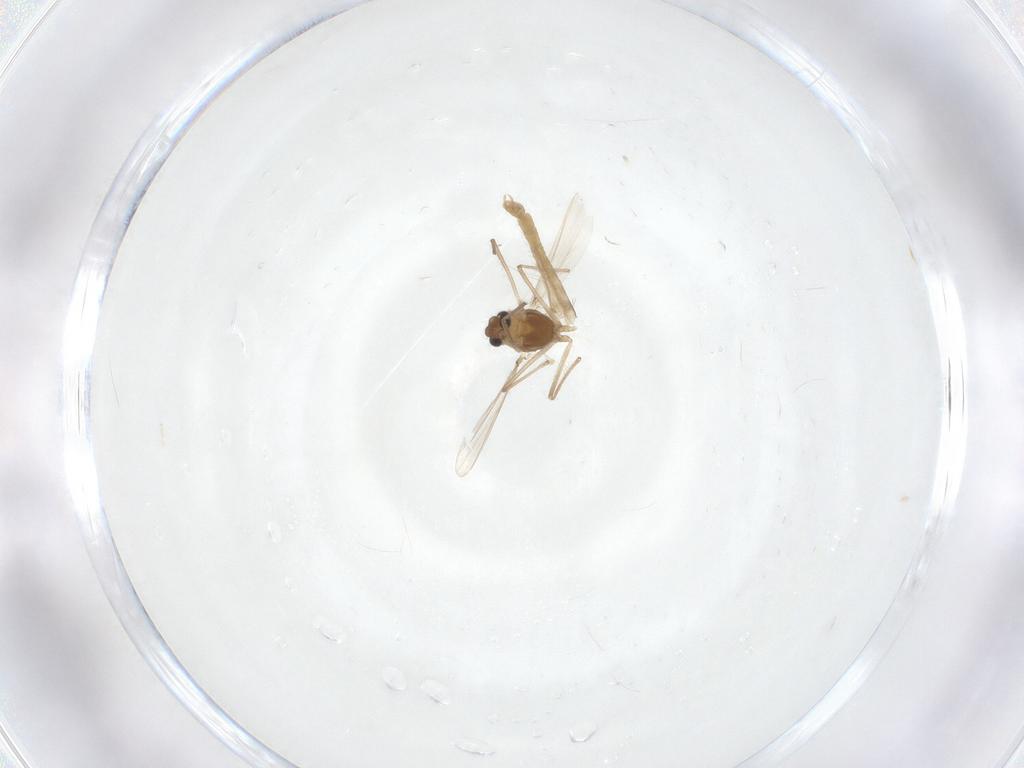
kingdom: Animalia
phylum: Arthropoda
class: Insecta
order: Diptera
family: Chironomidae
